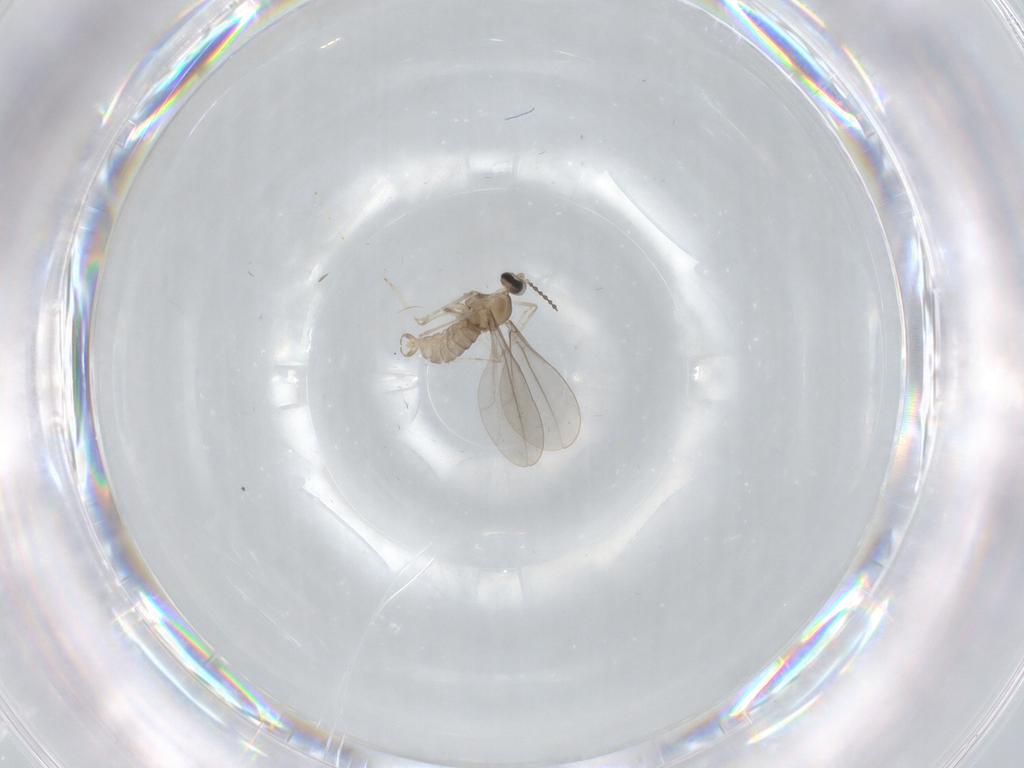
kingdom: Animalia
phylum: Arthropoda
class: Insecta
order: Diptera
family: Cecidomyiidae
